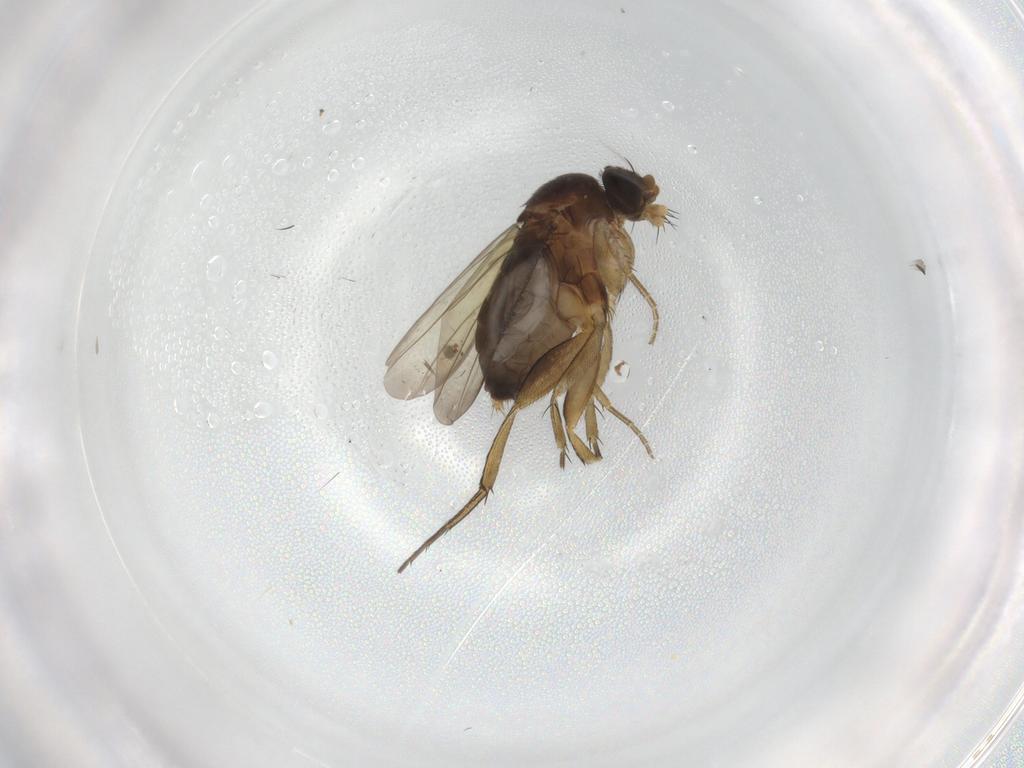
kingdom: Animalia
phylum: Arthropoda
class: Insecta
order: Diptera
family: Phoridae
